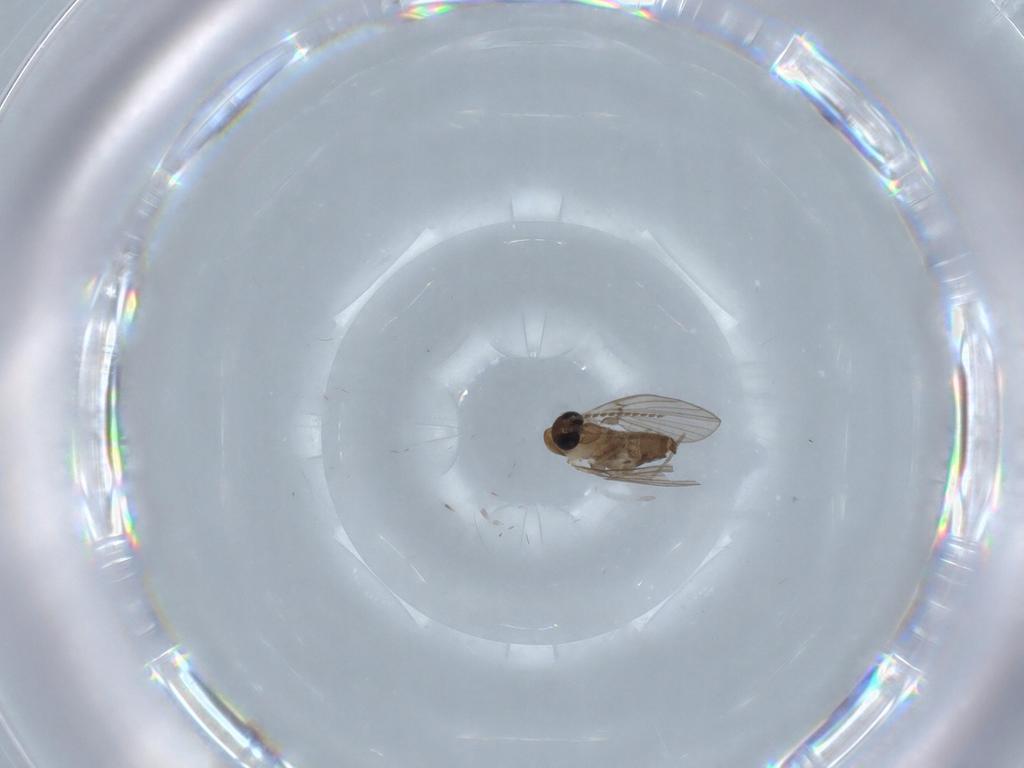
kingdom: Animalia
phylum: Arthropoda
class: Insecta
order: Diptera
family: Psychodidae
